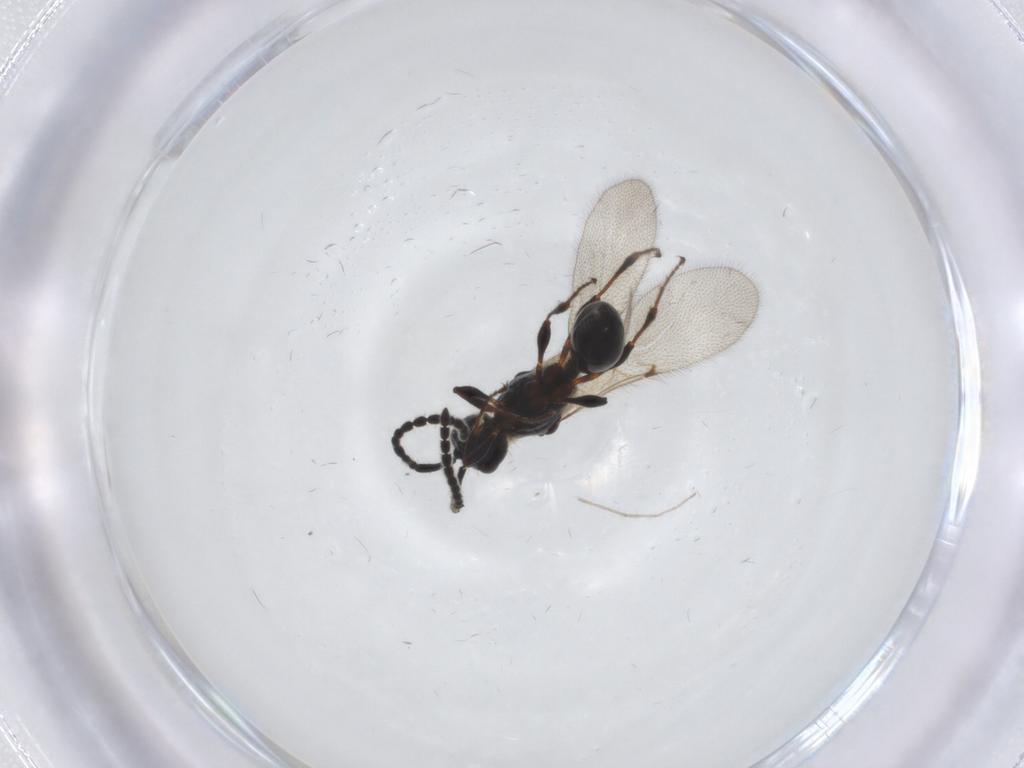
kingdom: Animalia
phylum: Arthropoda
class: Insecta
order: Hymenoptera
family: Diapriidae
